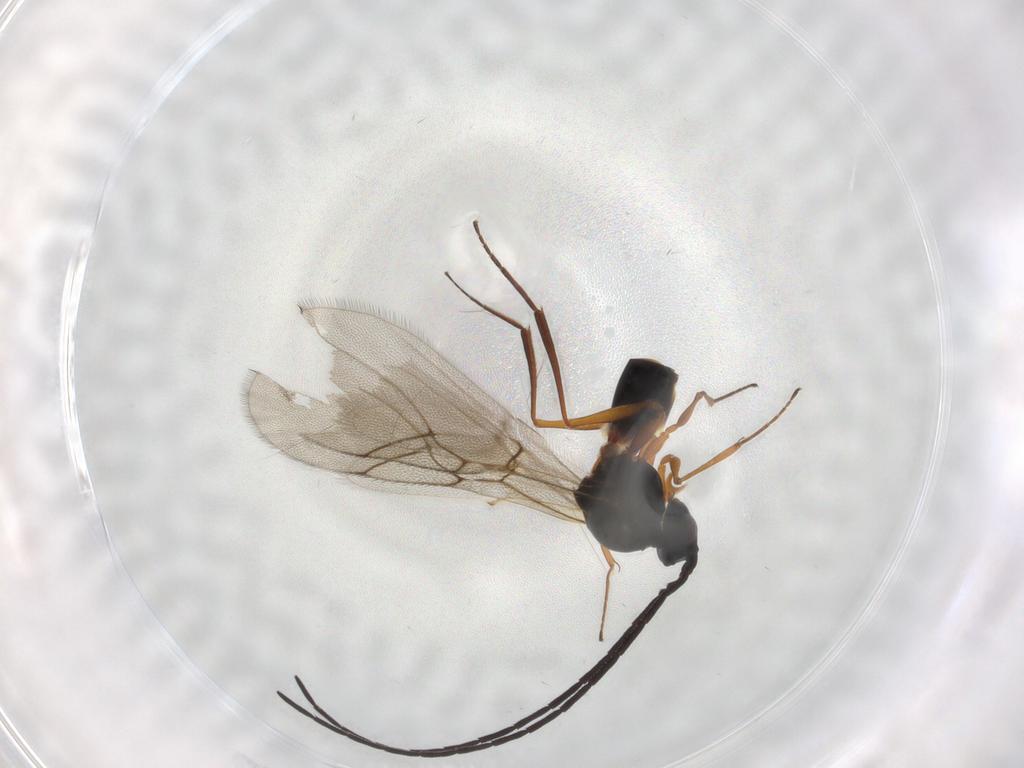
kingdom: Animalia
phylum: Arthropoda
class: Insecta
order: Hymenoptera
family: Figitidae
